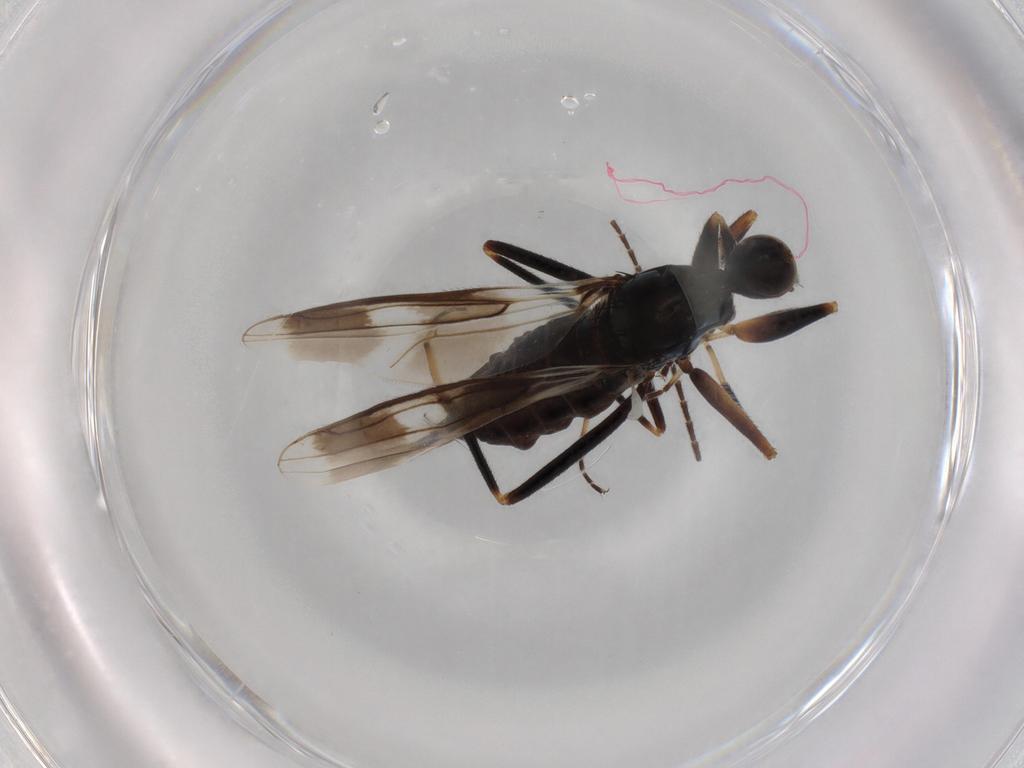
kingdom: Animalia
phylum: Arthropoda
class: Insecta
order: Diptera
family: Hybotidae
